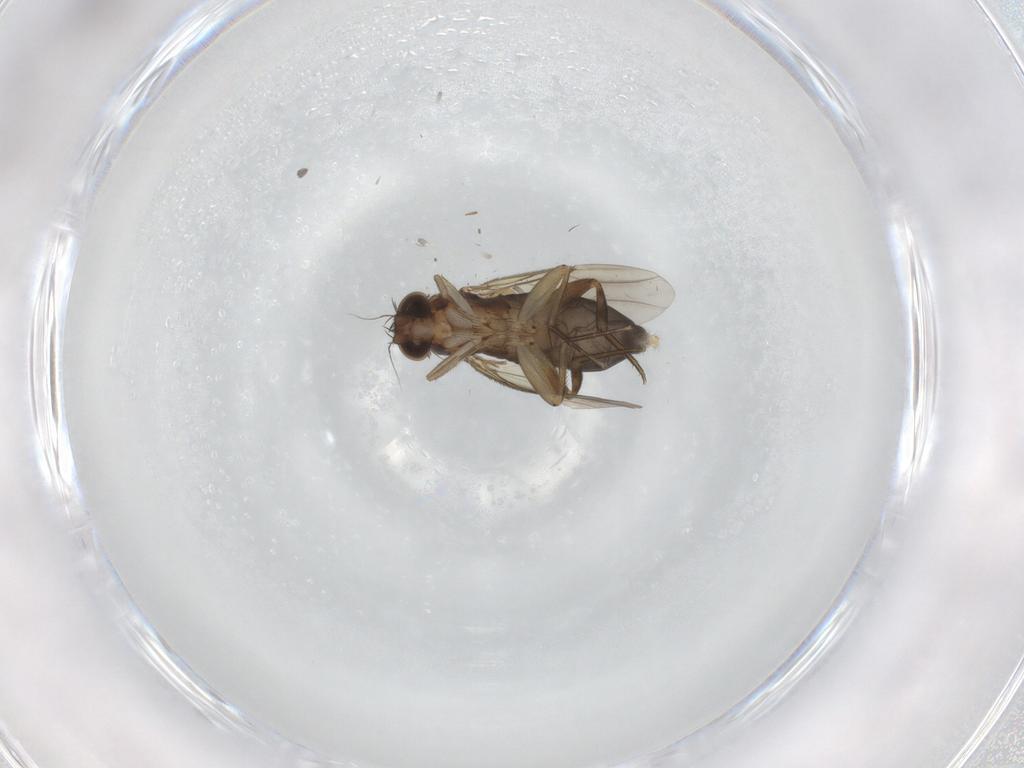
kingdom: Animalia
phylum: Arthropoda
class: Insecta
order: Diptera
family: Phoridae
